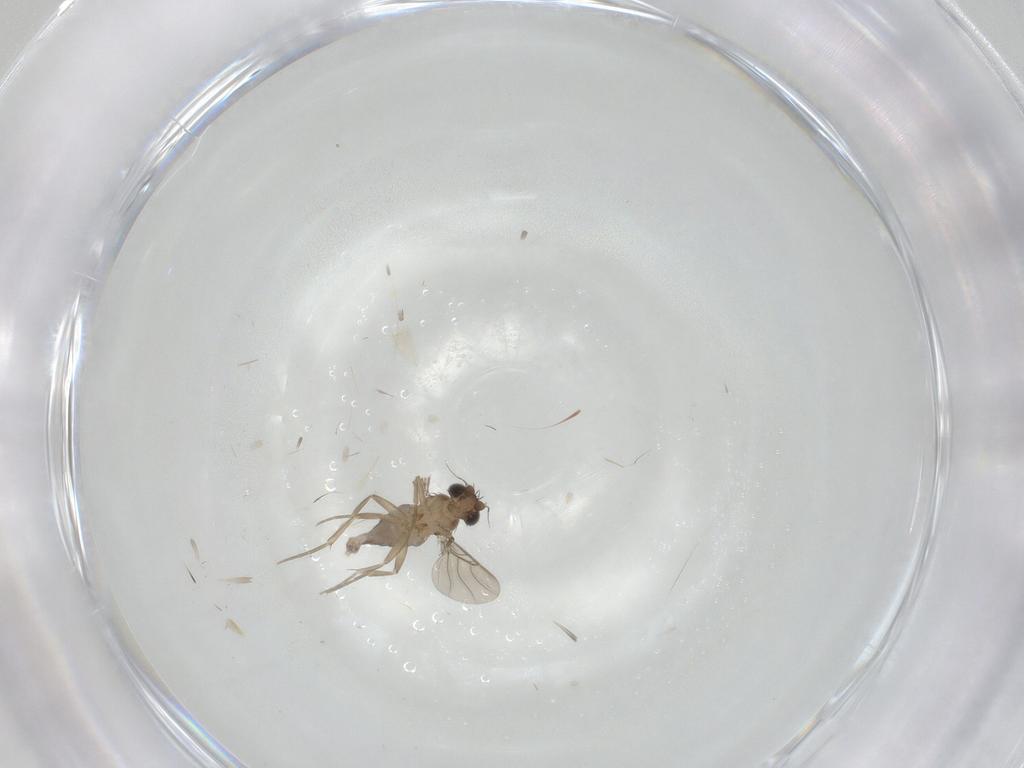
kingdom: Animalia
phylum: Arthropoda
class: Insecta
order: Diptera
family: Phoridae
